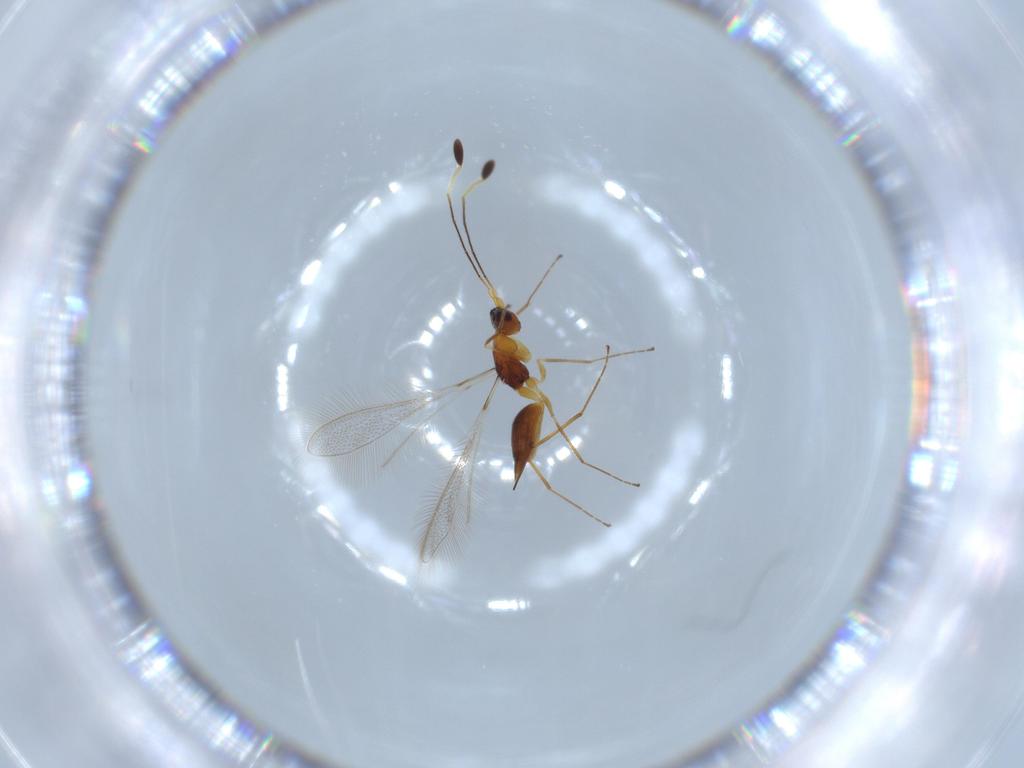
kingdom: Animalia
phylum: Arthropoda
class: Insecta
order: Hymenoptera
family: Mymaridae
